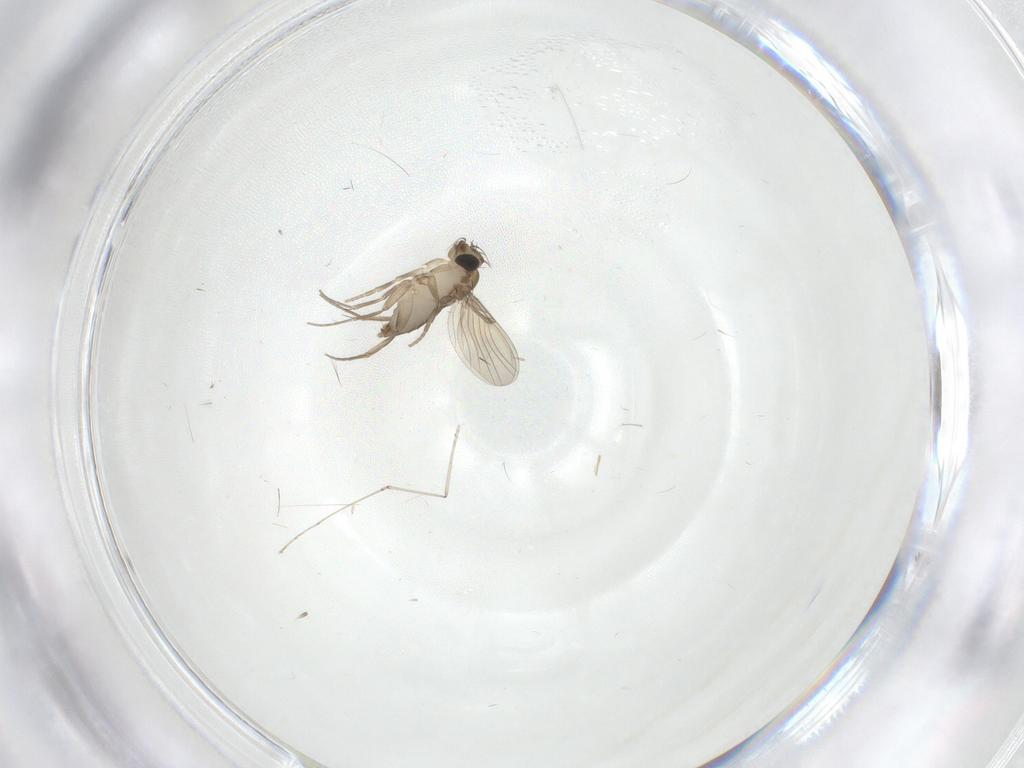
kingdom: Animalia
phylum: Arthropoda
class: Insecta
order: Diptera
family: Phoridae
